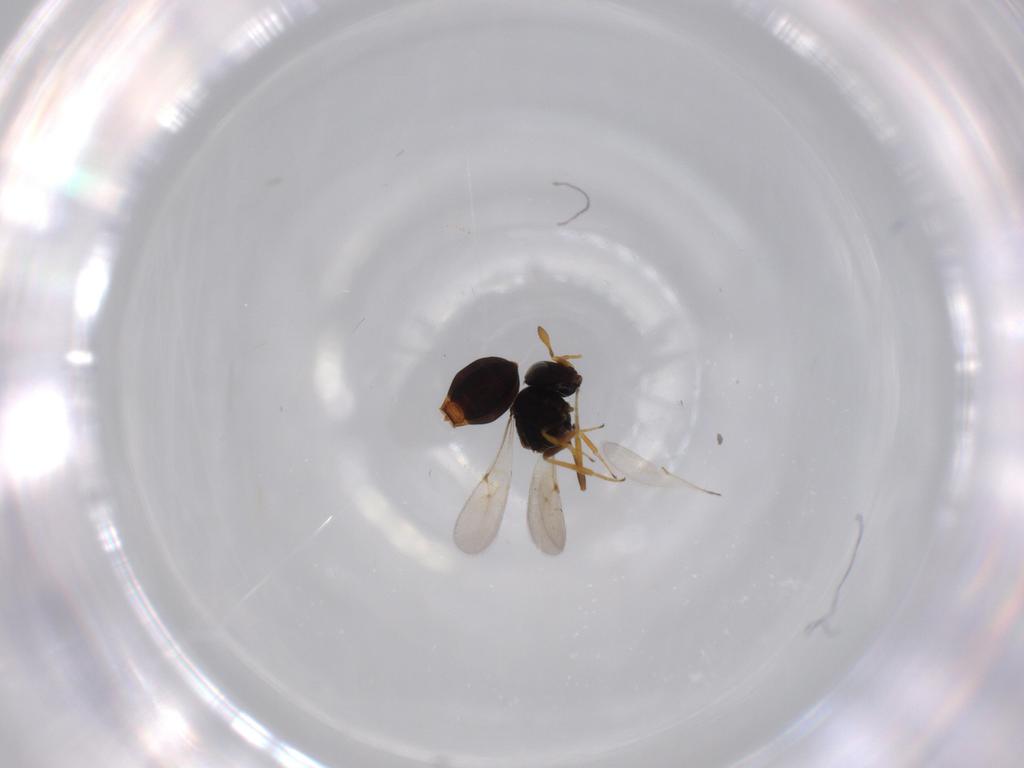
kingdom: Animalia
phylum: Arthropoda
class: Insecta
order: Hymenoptera
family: Scelionidae
